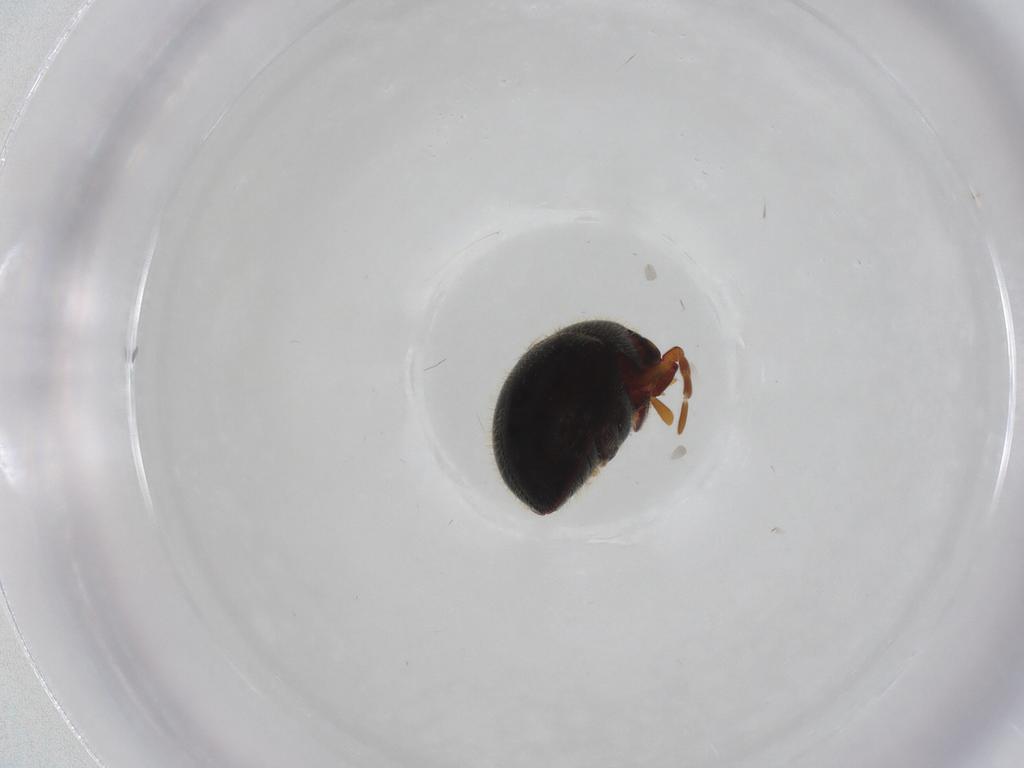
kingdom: Animalia
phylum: Arthropoda
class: Insecta
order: Coleoptera
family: Ptilodactylidae
